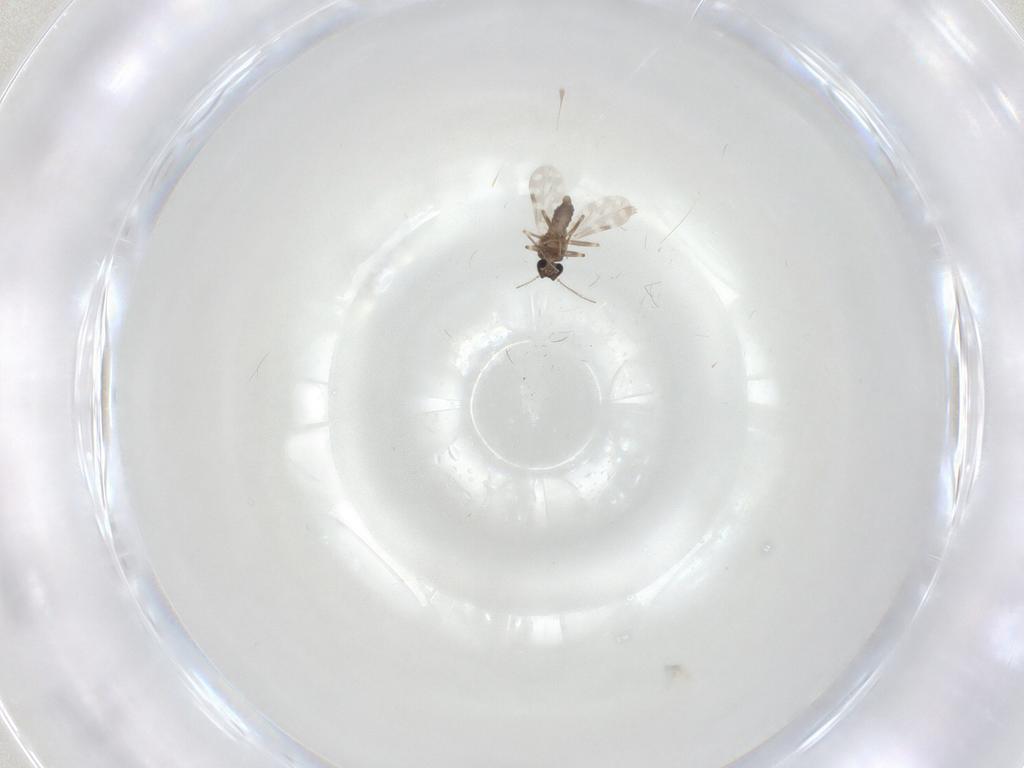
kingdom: Animalia
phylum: Arthropoda
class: Insecta
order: Diptera
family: Ceratopogonidae
